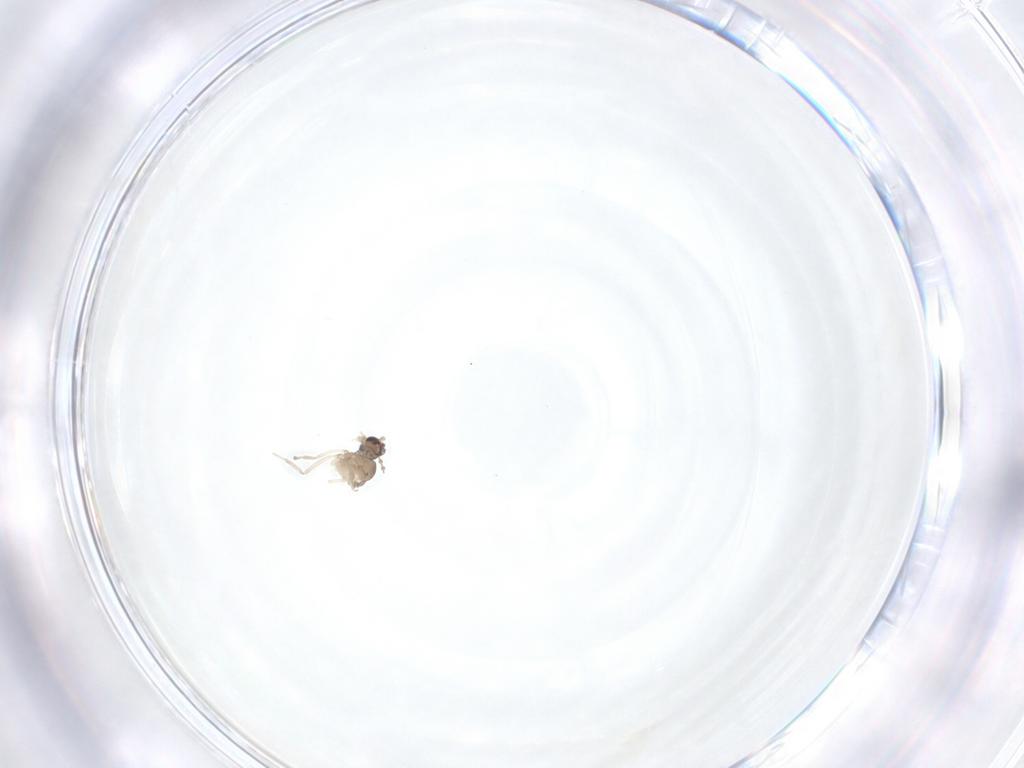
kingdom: Animalia
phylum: Arthropoda
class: Insecta
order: Diptera
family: Cecidomyiidae
